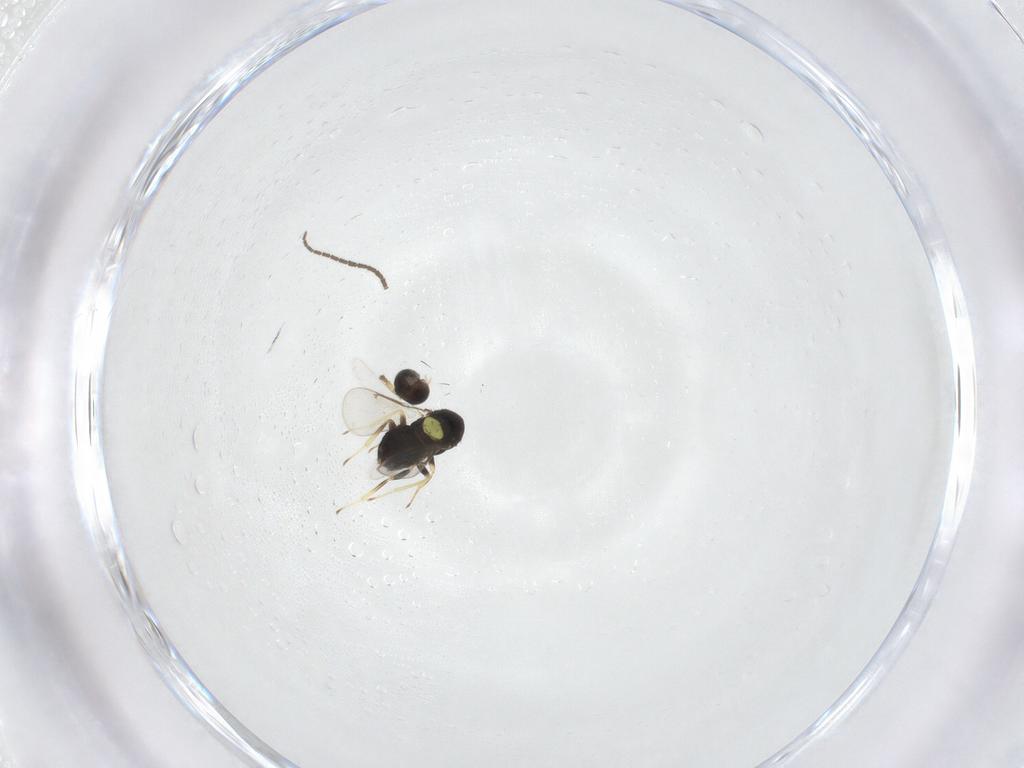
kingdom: Animalia
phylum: Arthropoda
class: Insecta
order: Hymenoptera
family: Aphelinidae
